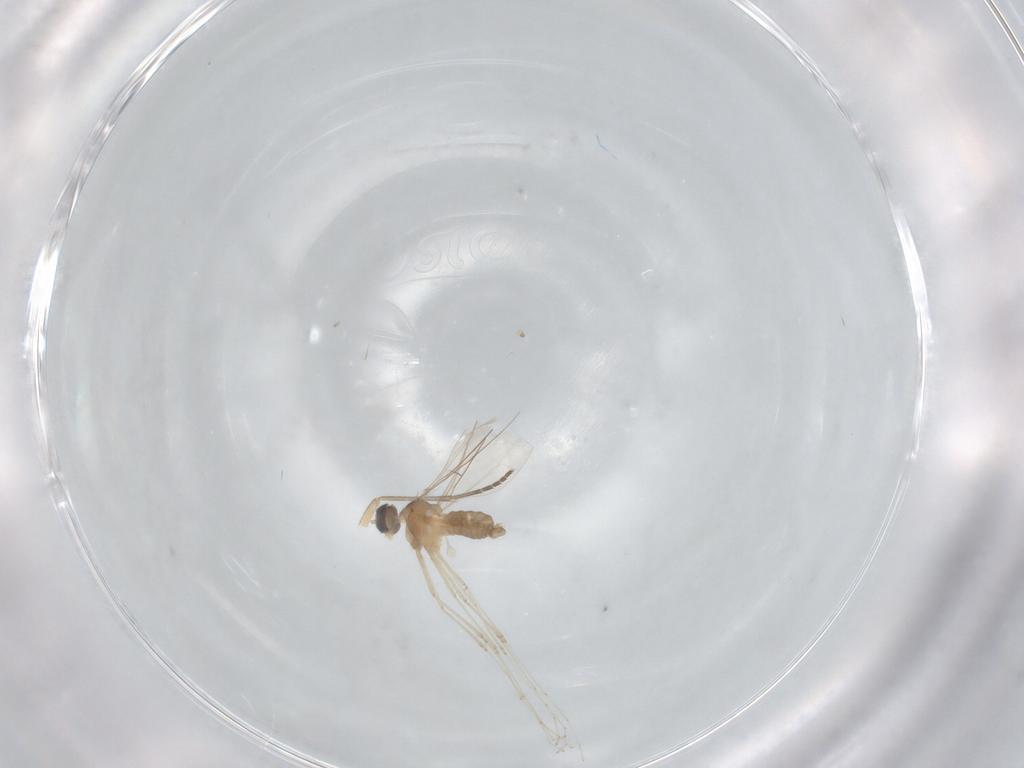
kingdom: Animalia
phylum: Arthropoda
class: Insecta
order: Diptera
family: Cecidomyiidae
